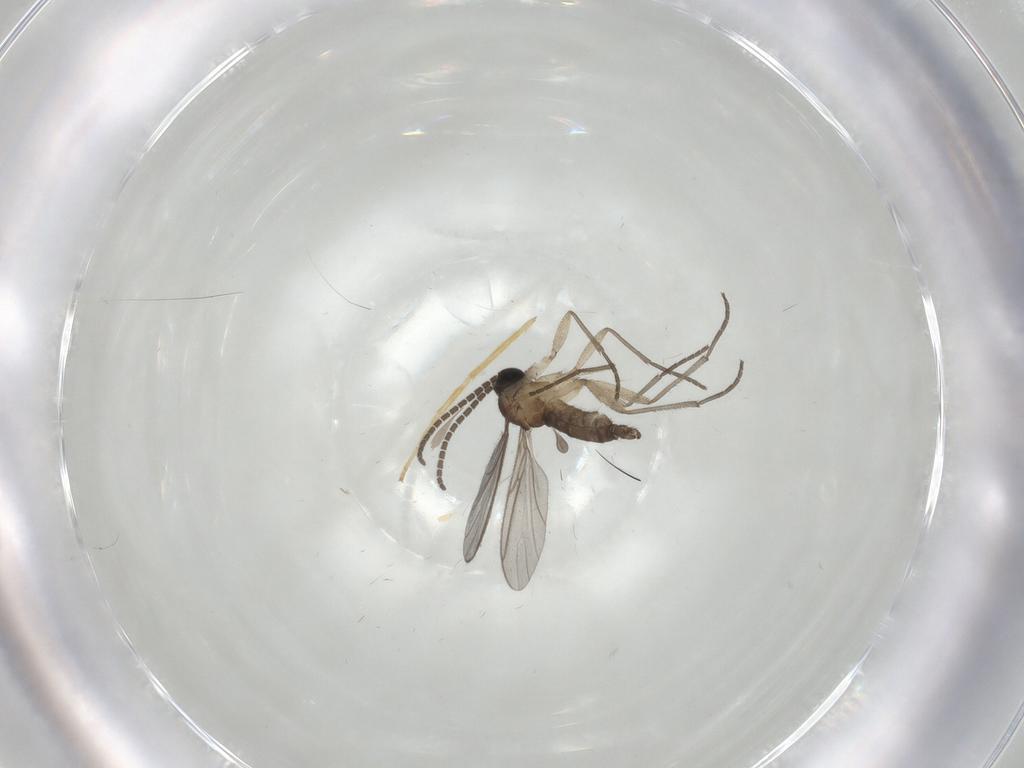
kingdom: Animalia
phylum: Arthropoda
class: Insecta
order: Diptera
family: Sciaridae
